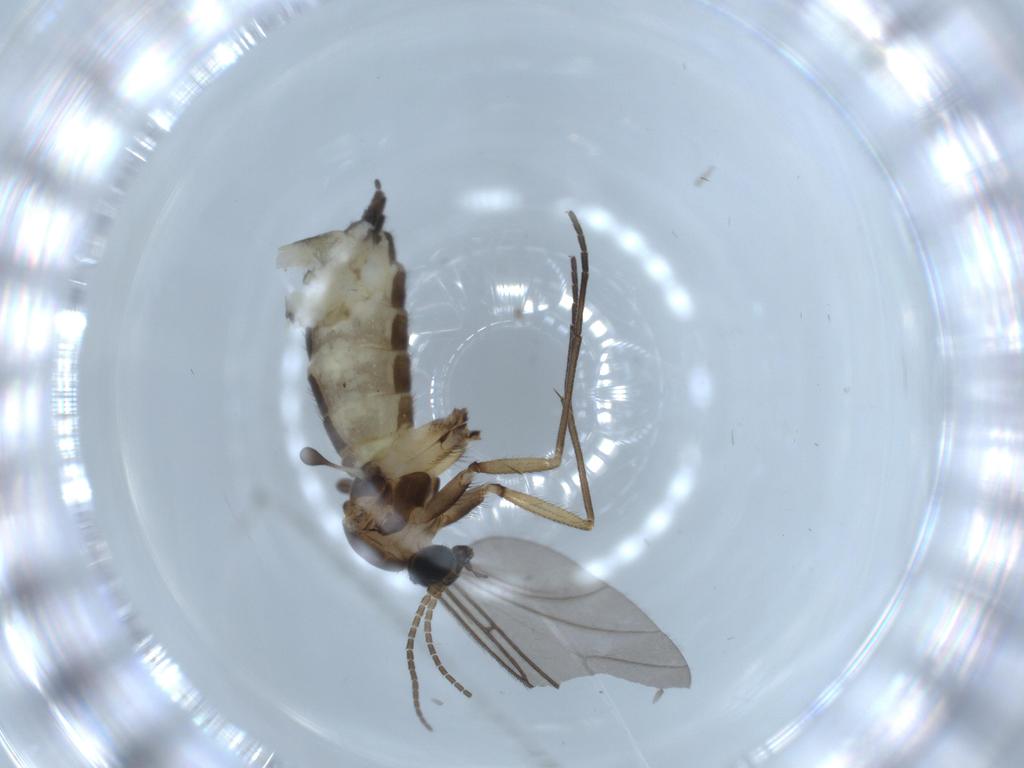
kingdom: Animalia
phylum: Arthropoda
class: Insecta
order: Diptera
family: Sciaridae
